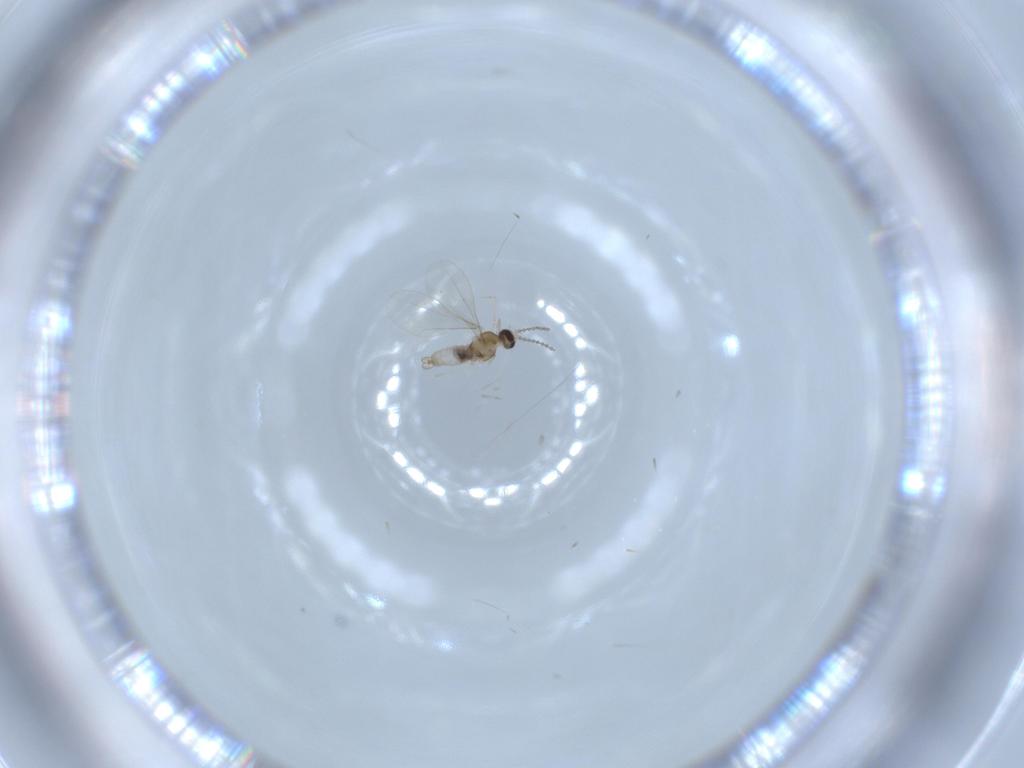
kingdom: Animalia
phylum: Arthropoda
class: Insecta
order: Diptera
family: Cecidomyiidae
